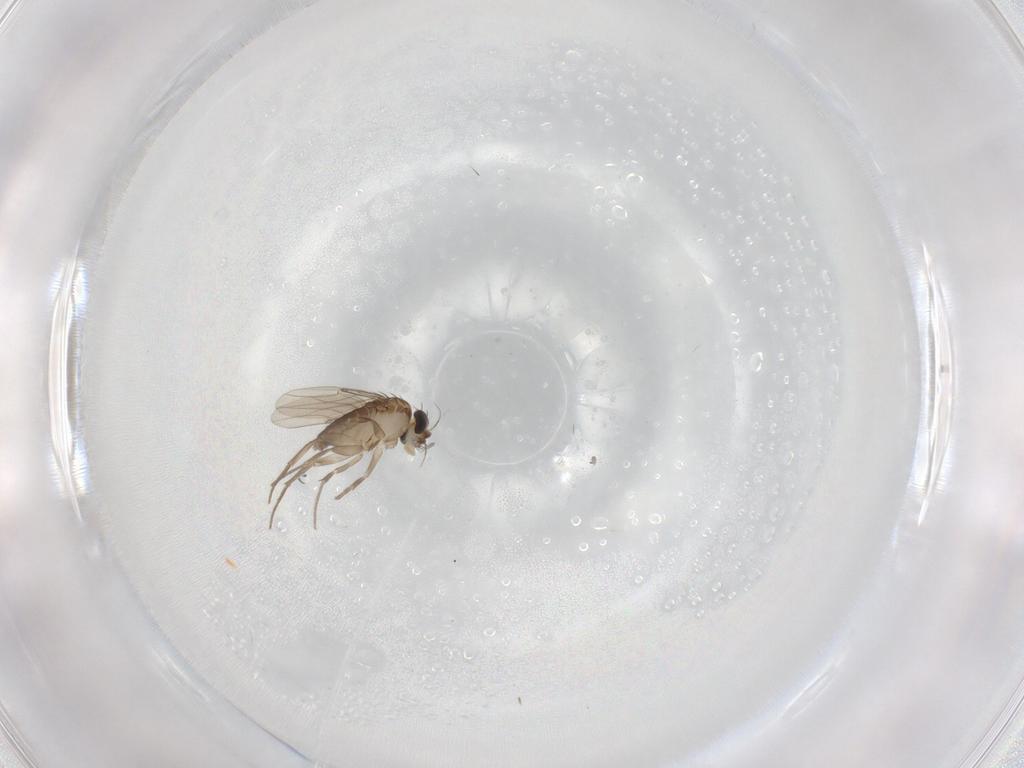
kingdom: Animalia
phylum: Arthropoda
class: Insecta
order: Diptera
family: Phoridae
